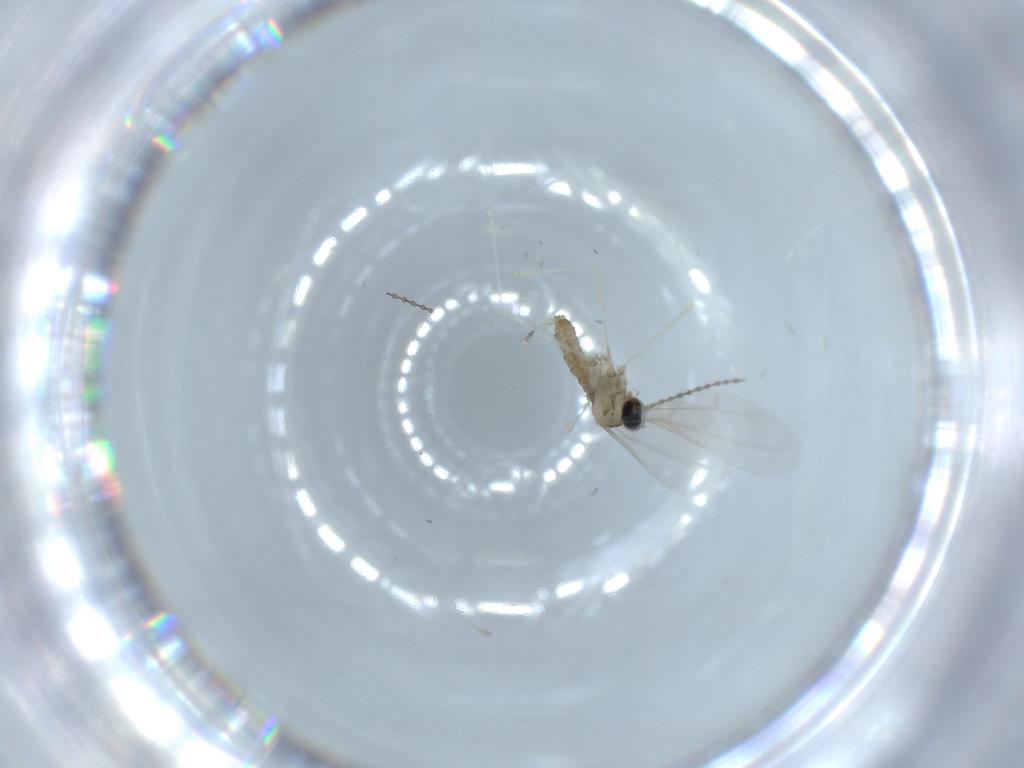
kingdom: Animalia
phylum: Arthropoda
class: Insecta
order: Diptera
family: Cecidomyiidae
